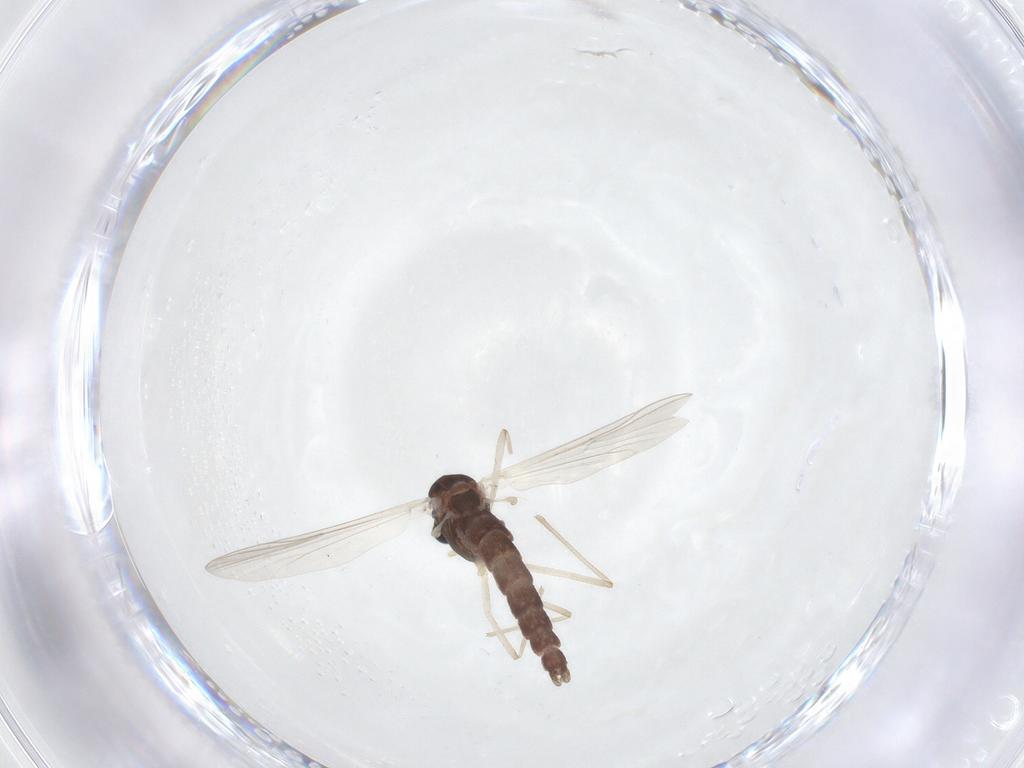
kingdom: Animalia
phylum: Arthropoda
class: Insecta
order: Diptera
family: Chironomidae
